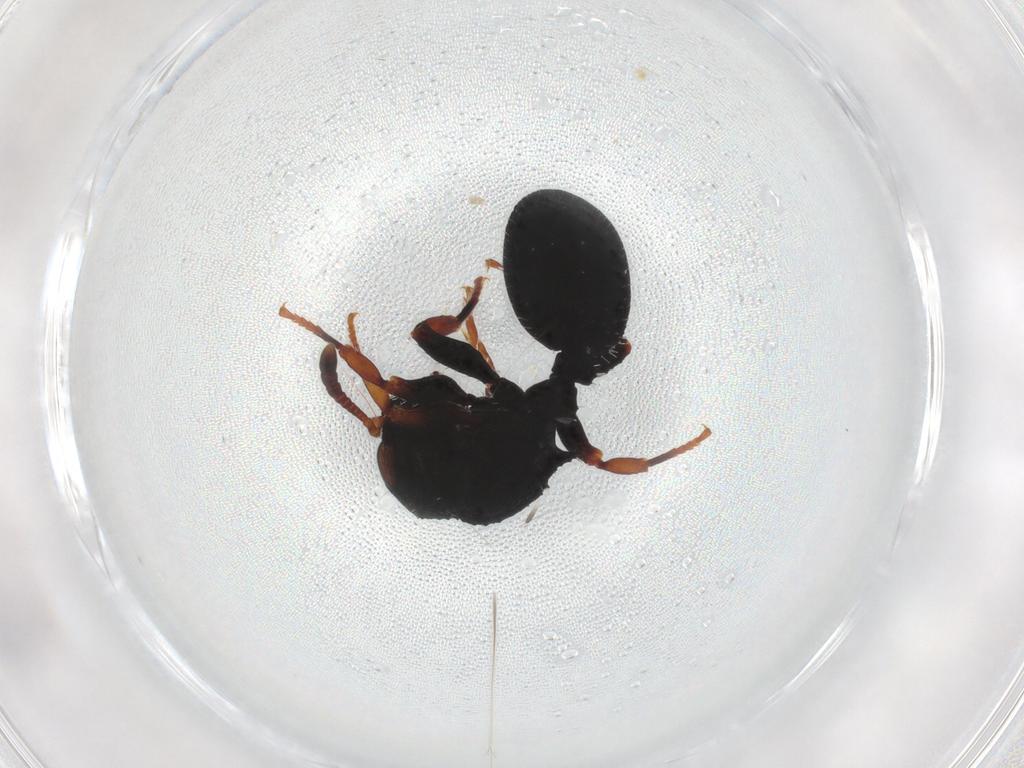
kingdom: Animalia
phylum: Arthropoda
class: Insecta
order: Hymenoptera
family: Formicidae
